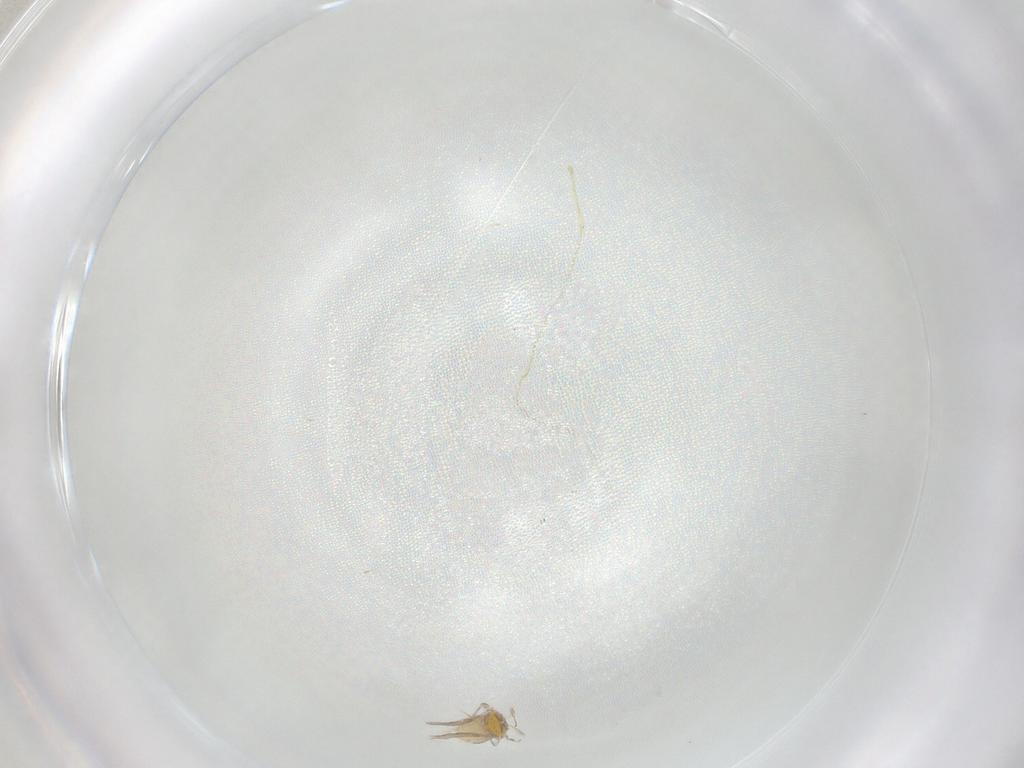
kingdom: Animalia
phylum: Arthropoda
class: Insecta
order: Hymenoptera
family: Aphelinidae
